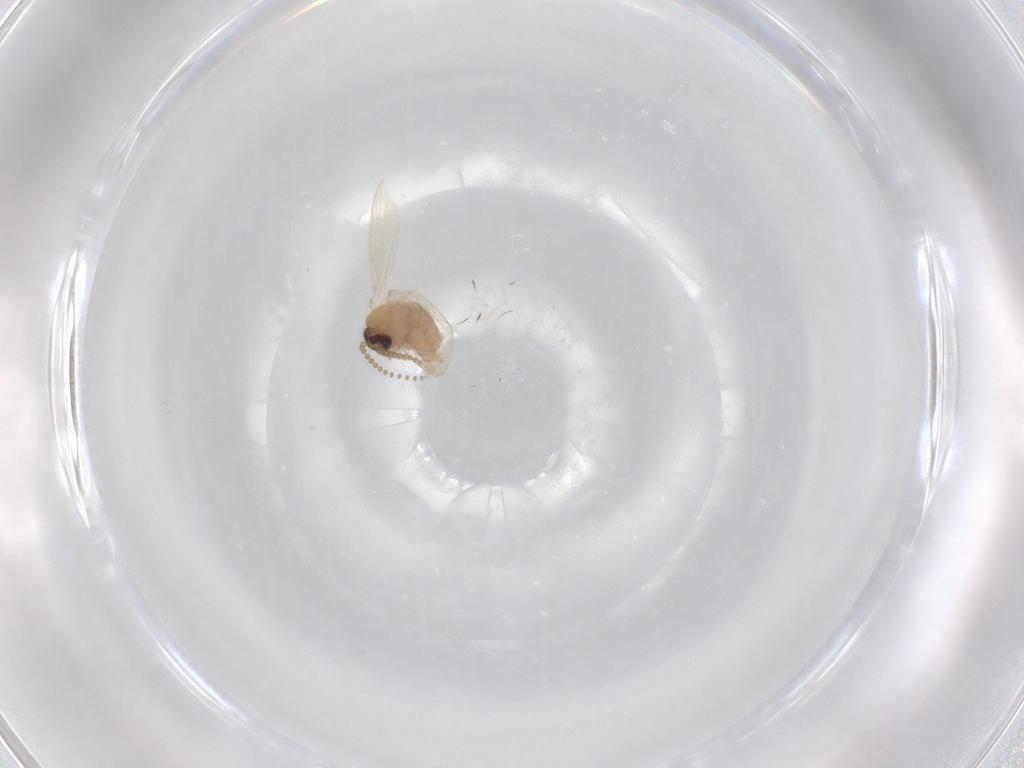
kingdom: Animalia
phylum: Arthropoda
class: Insecta
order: Diptera
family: Psychodidae
